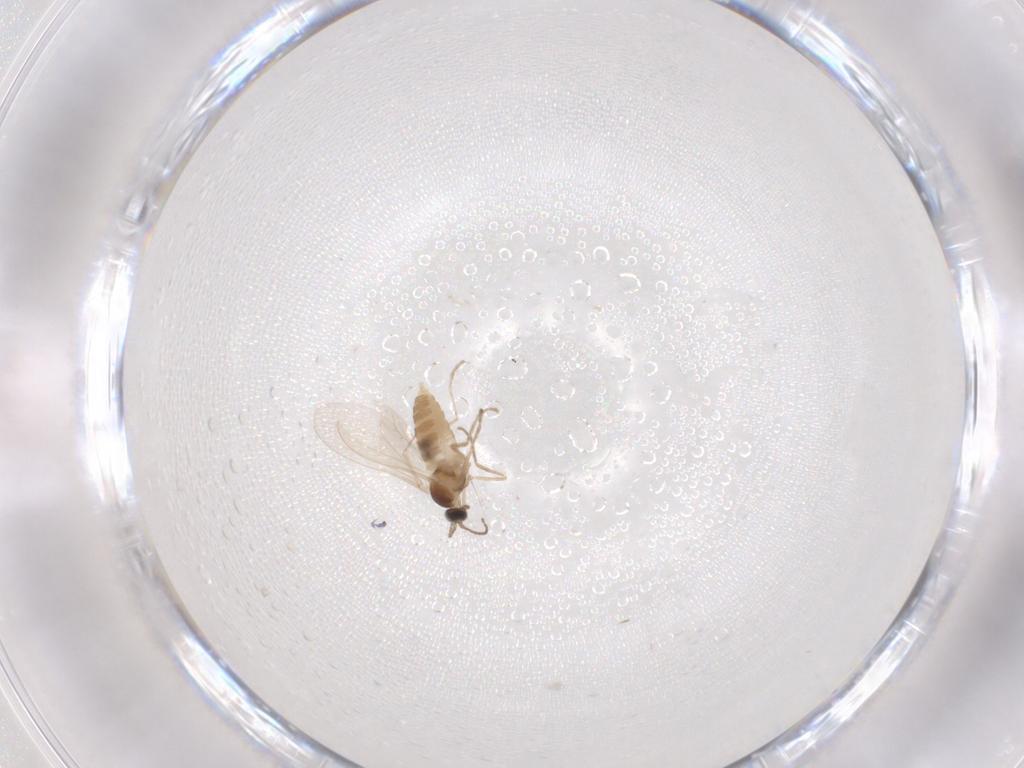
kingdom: Animalia
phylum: Arthropoda
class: Insecta
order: Diptera
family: Cecidomyiidae
